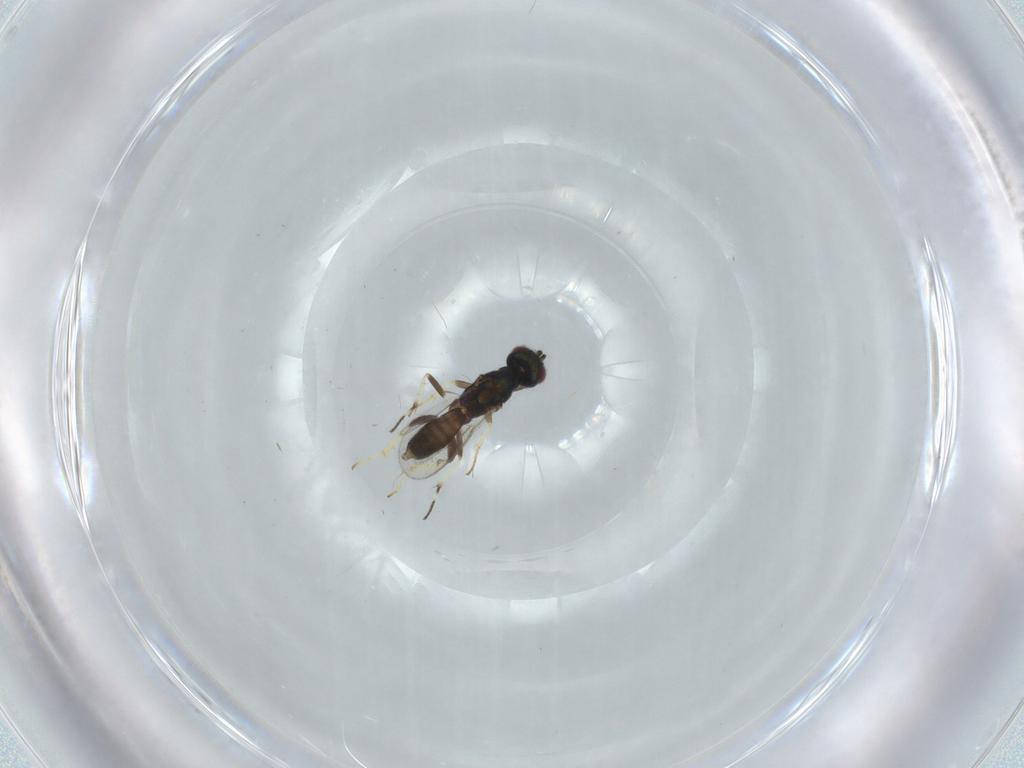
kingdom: Animalia
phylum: Arthropoda
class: Insecta
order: Hymenoptera
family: Eupelmidae
